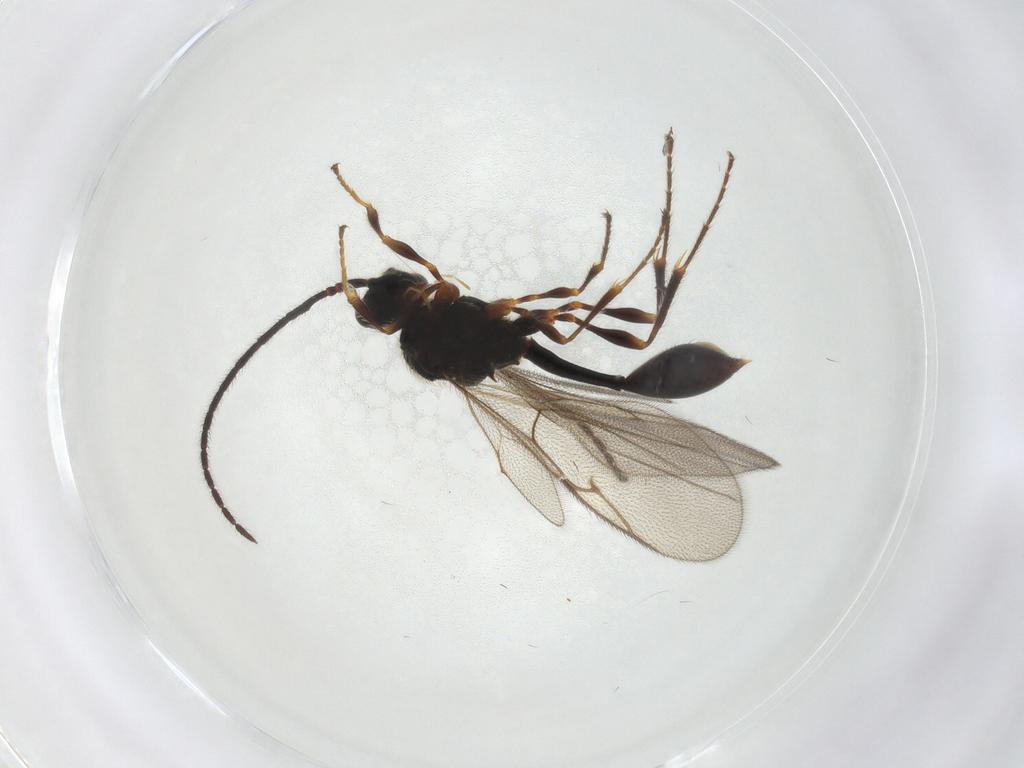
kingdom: Animalia
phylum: Arthropoda
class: Insecta
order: Hymenoptera
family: Diapriidae
